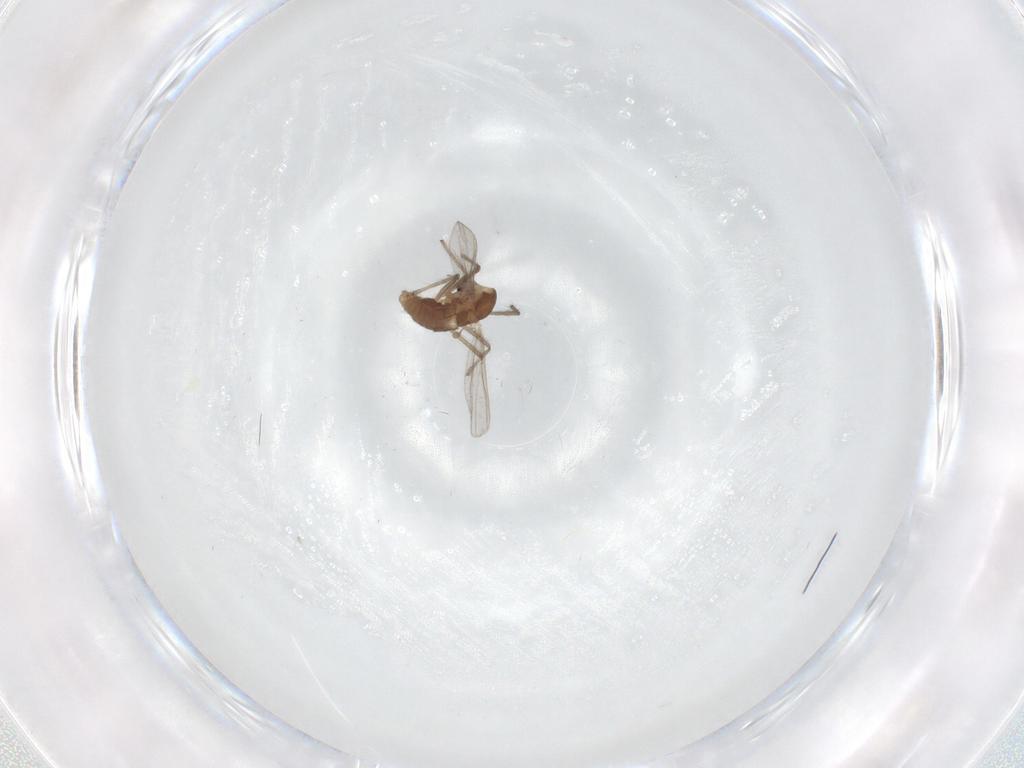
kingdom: Animalia
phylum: Arthropoda
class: Insecta
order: Diptera
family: Chironomidae
